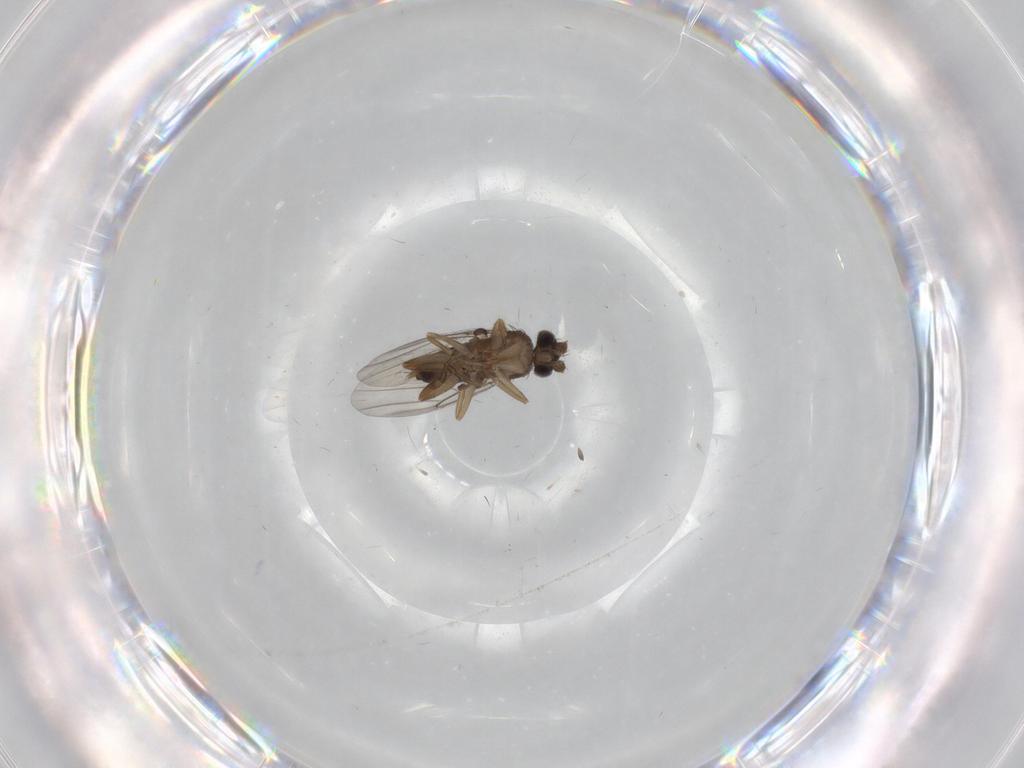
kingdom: Animalia
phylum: Arthropoda
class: Insecta
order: Diptera
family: Phoridae
